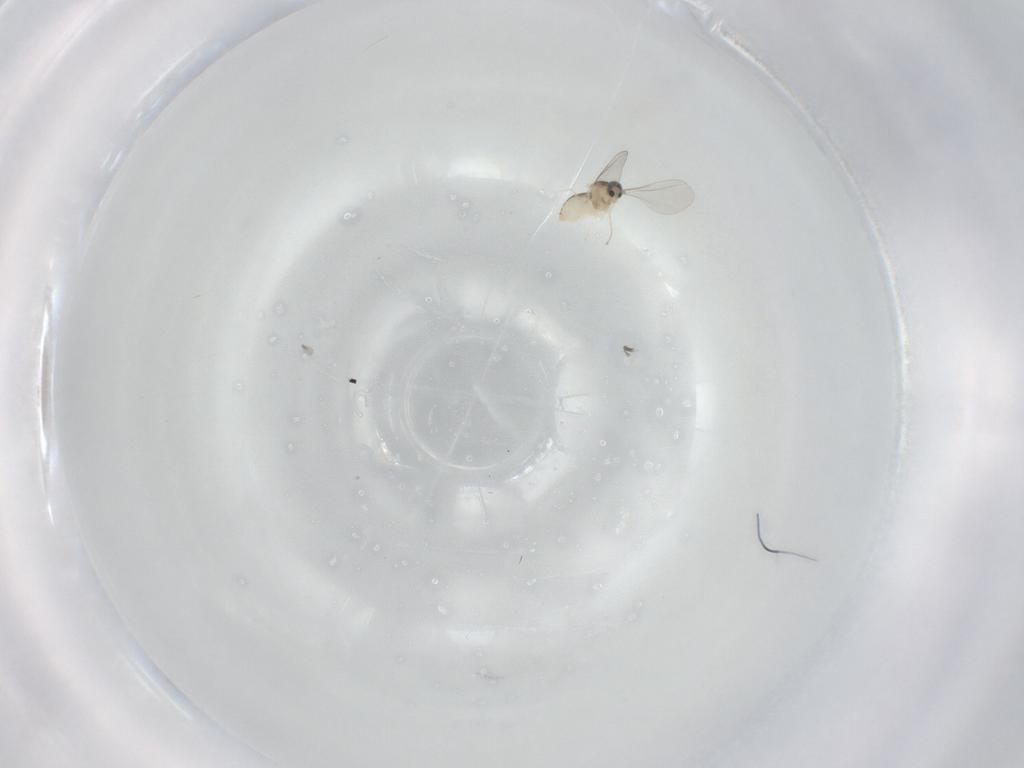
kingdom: Animalia
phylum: Arthropoda
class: Insecta
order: Diptera
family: Cecidomyiidae
